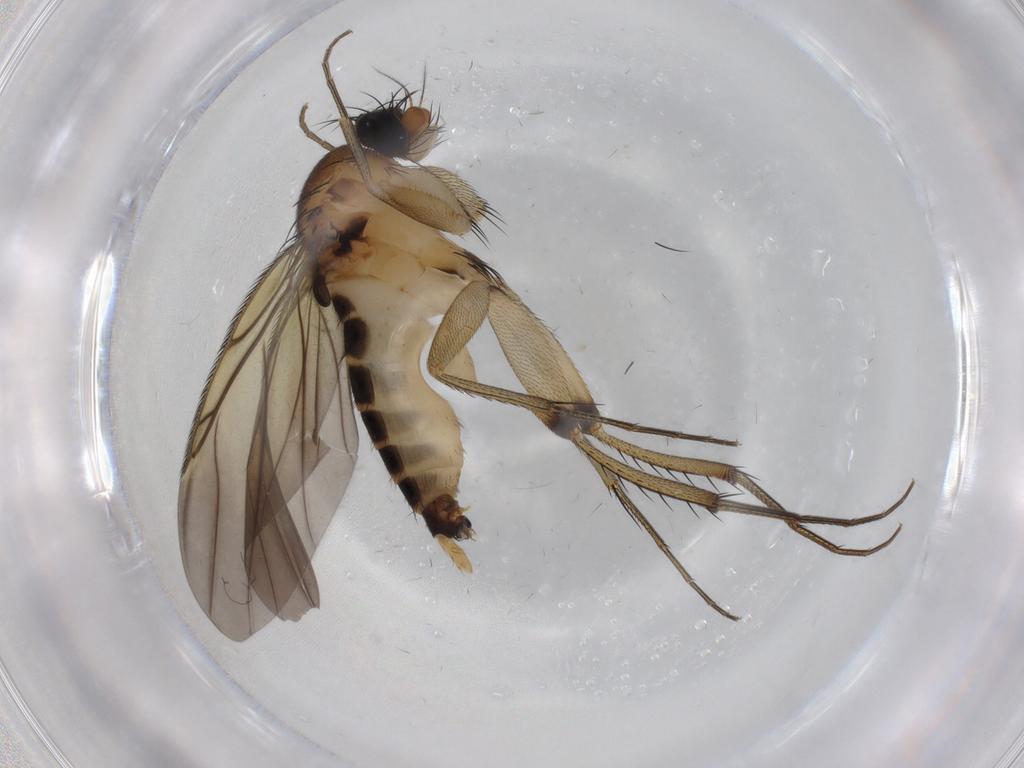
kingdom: Animalia
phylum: Arthropoda
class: Insecta
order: Diptera
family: Phoridae
